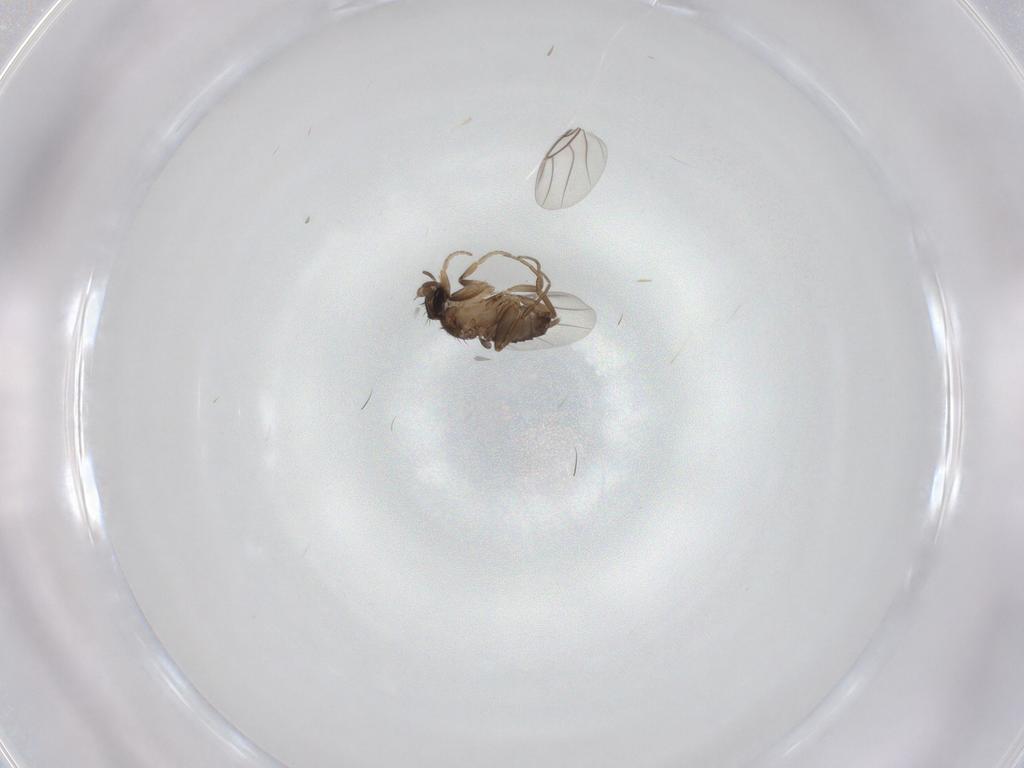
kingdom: Animalia
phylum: Arthropoda
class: Insecta
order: Diptera
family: Phoridae
